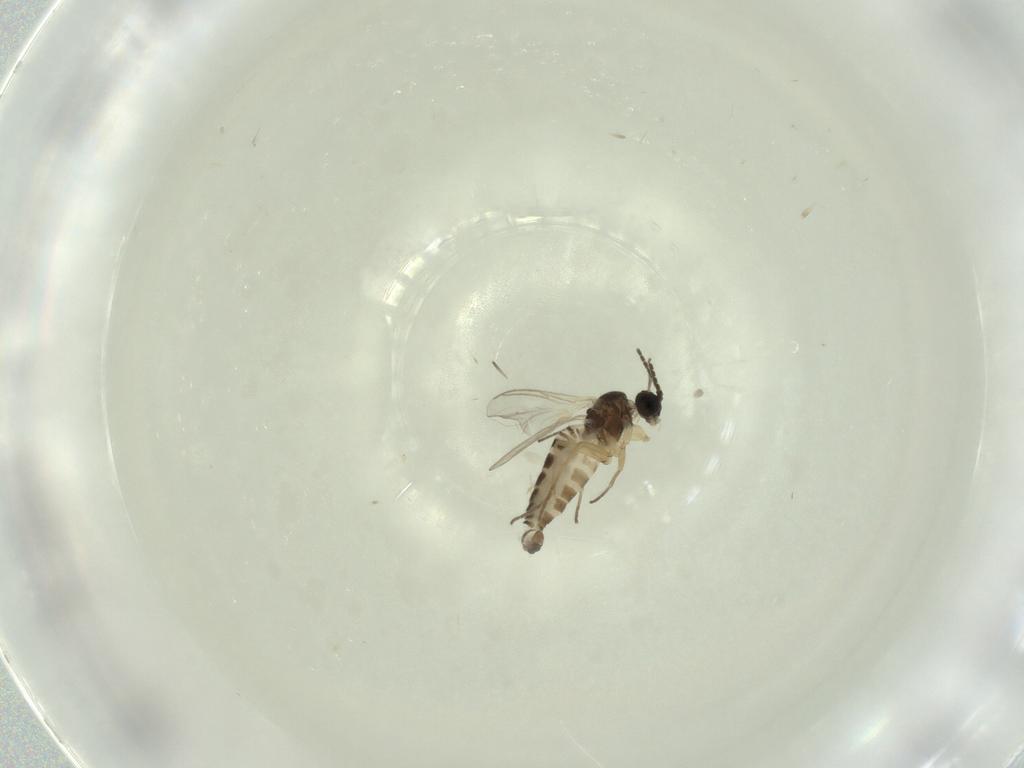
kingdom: Animalia
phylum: Arthropoda
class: Insecta
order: Diptera
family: Sciaridae
